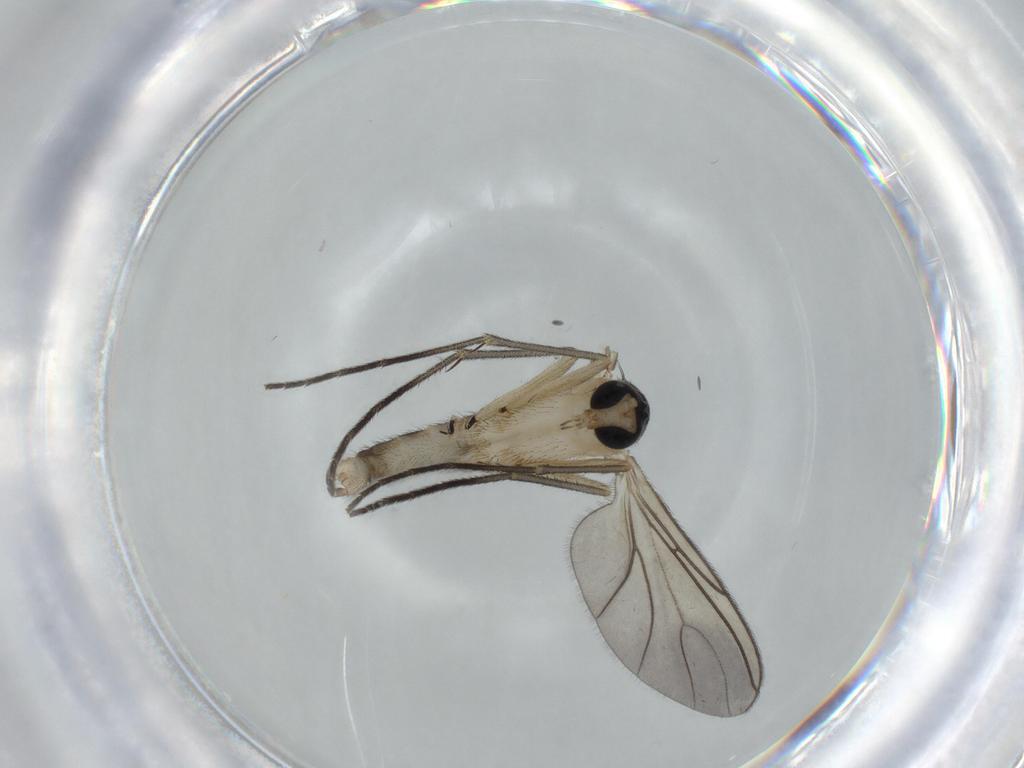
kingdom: Animalia
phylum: Arthropoda
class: Insecta
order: Diptera
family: Sciaridae
